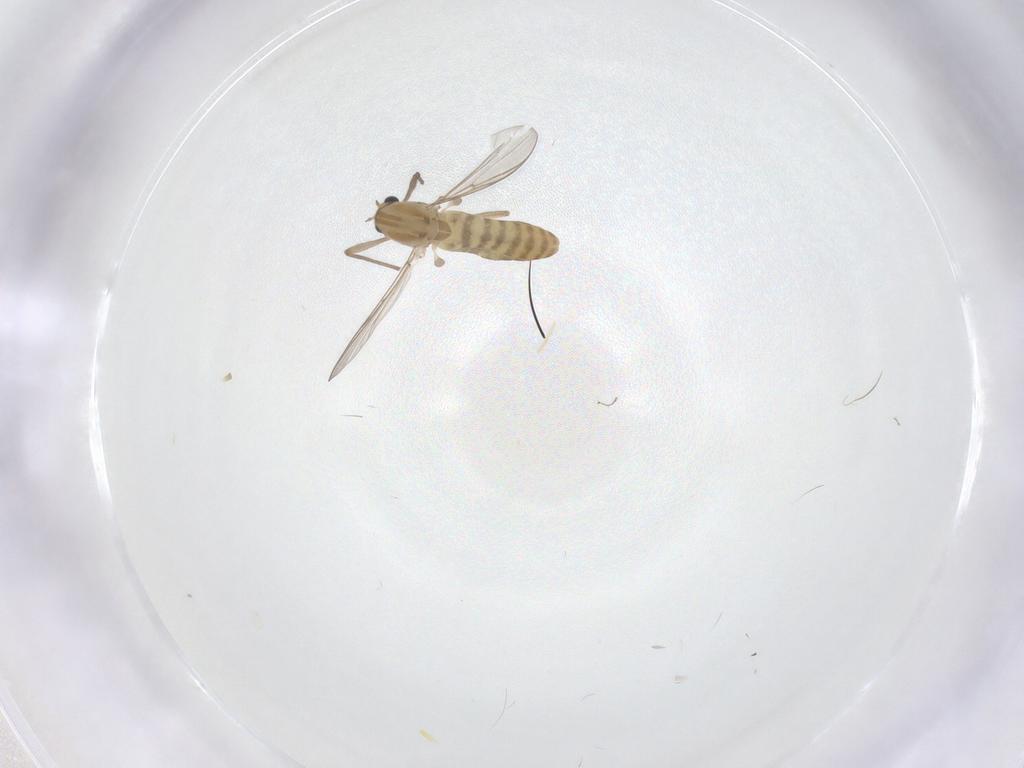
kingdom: Animalia
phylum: Arthropoda
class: Insecta
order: Diptera
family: Chironomidae
